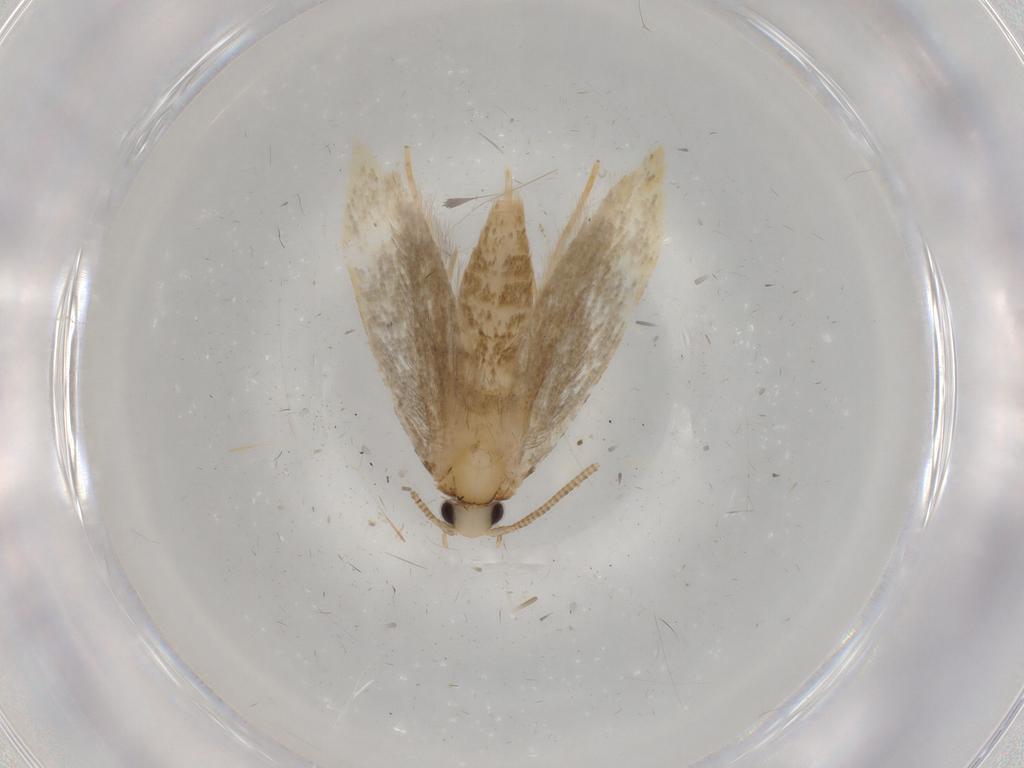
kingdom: Animalia
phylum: Arthropoda
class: Insecta
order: Lepidoptera
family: Tineidae
